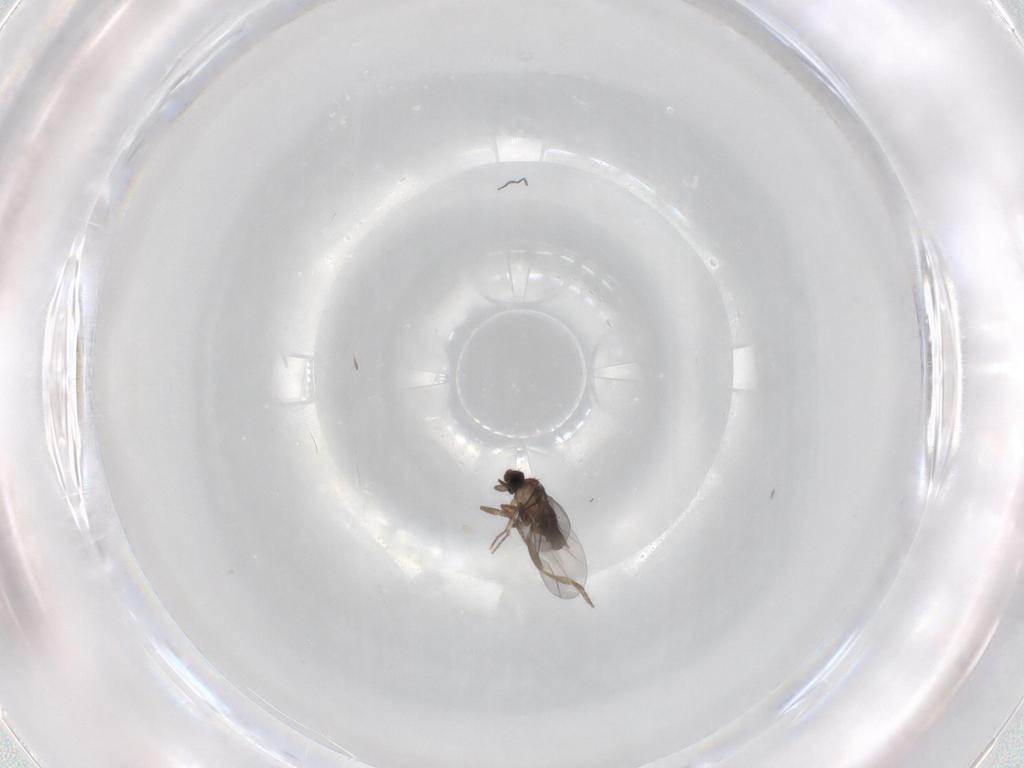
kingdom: Animalia
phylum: Arthropoda
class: Insecta
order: Diptera
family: Phoridae
